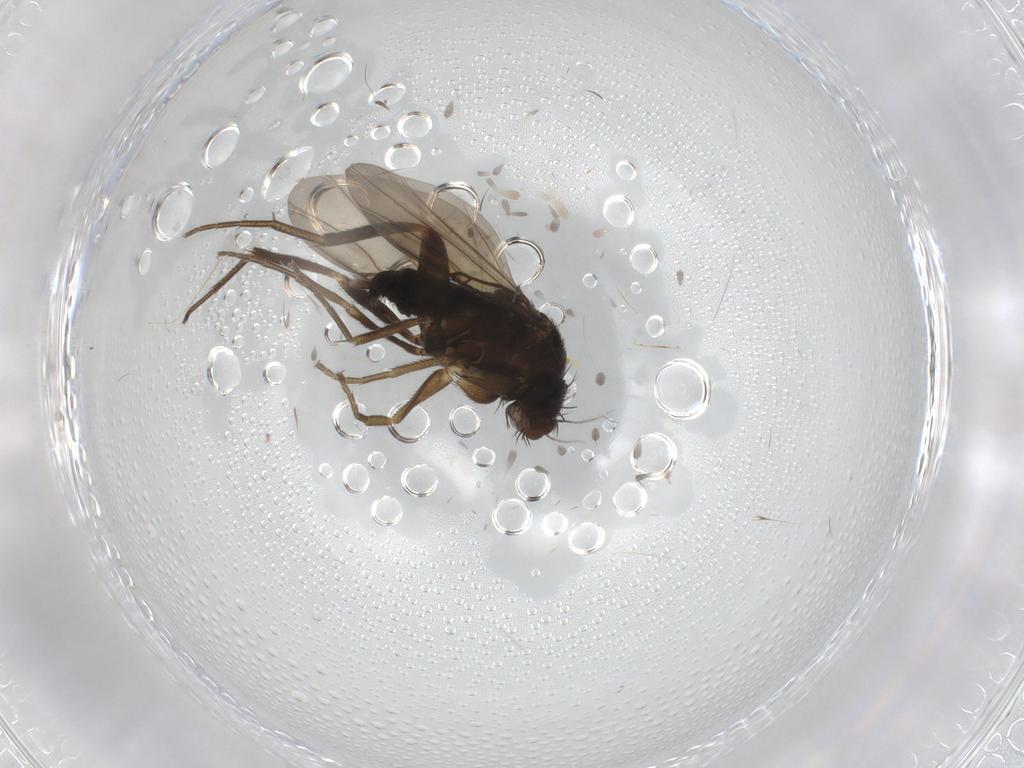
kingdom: Animalia
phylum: Arthropoda
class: Insecta
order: Diptera
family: Phoridae
